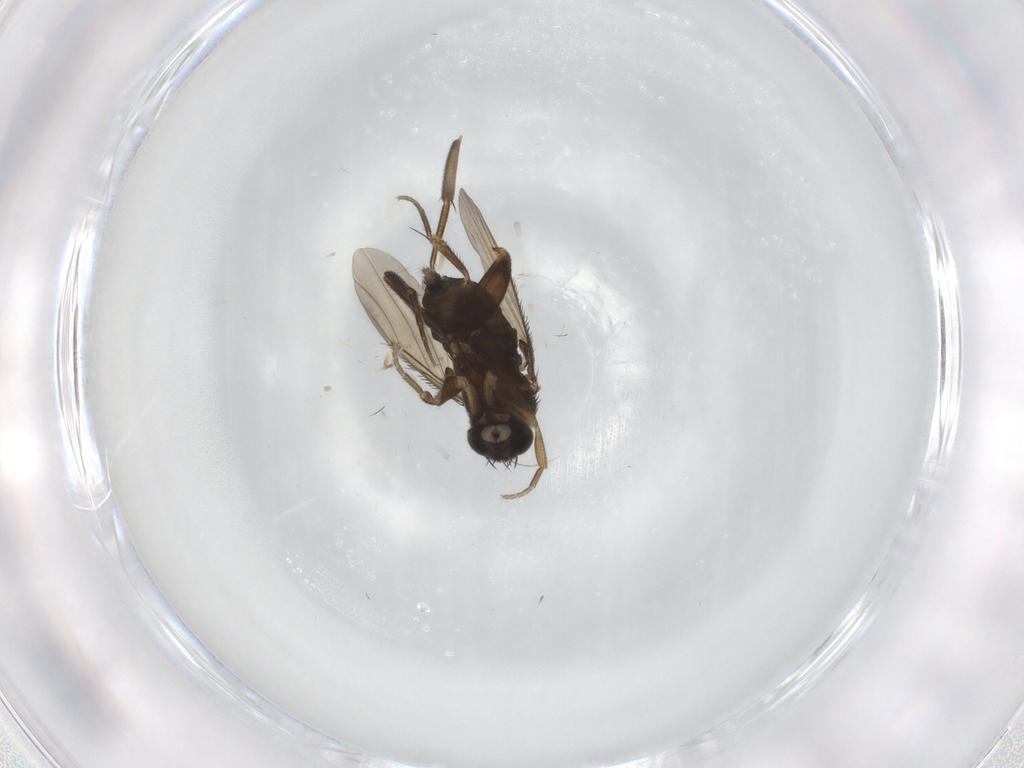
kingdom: Animalia
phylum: Arthropoda
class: Insecta
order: Diptera
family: Phoridae
